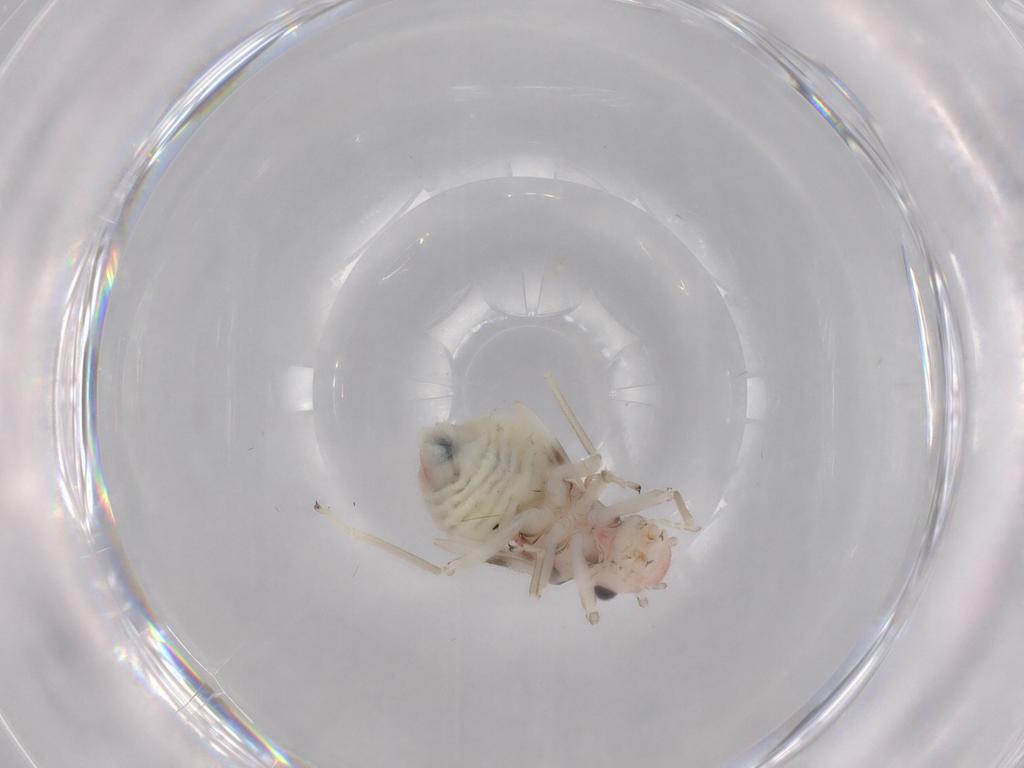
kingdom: Animalia
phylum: Arthropoda
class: Insecta
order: Psocodea
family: Amphipsocidae
